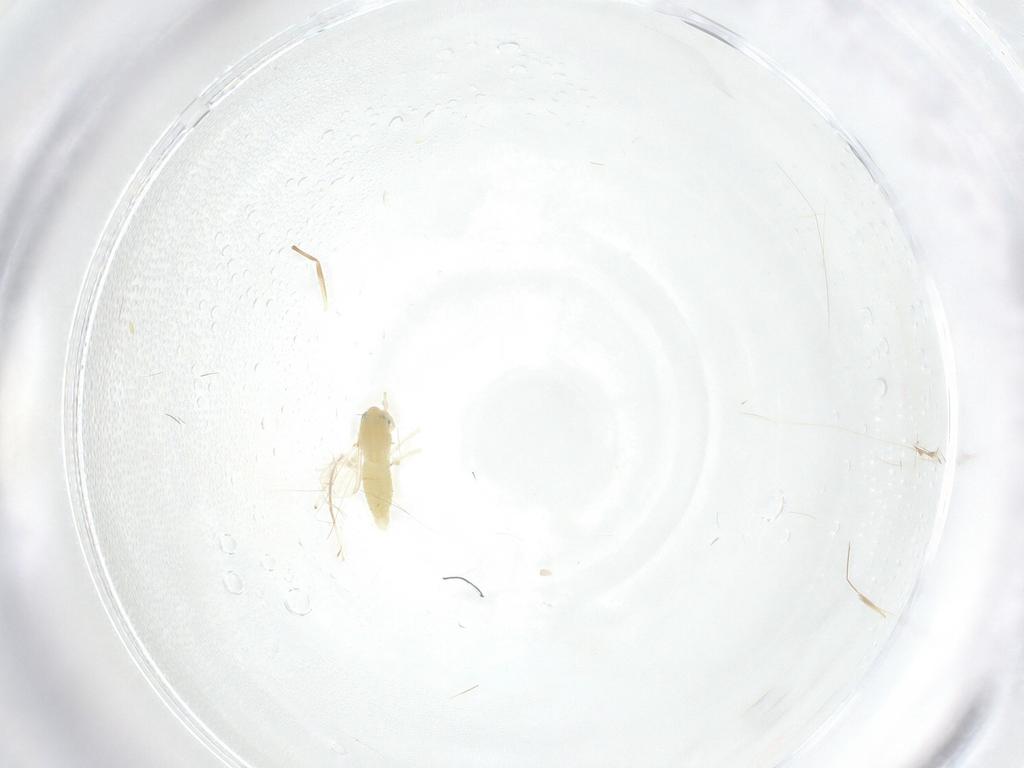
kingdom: Animalia
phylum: Arthropoda
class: Insecta
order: Diptera
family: Chironomidae
